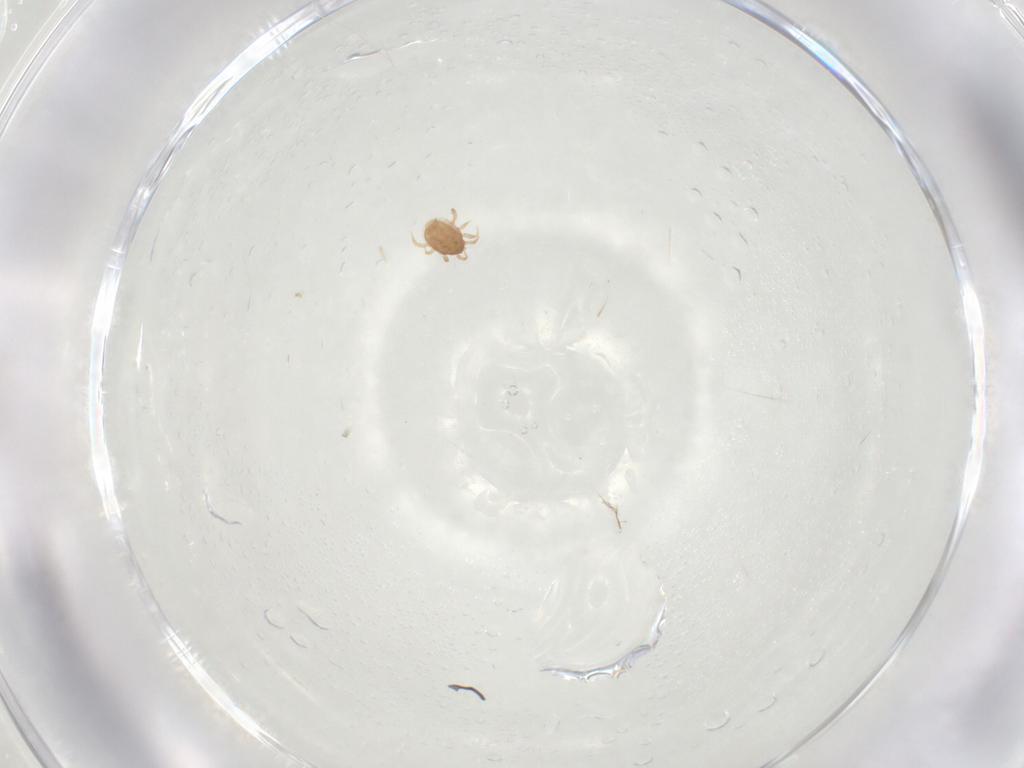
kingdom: Animalia
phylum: Arthropoda
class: Arachnida
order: Mesostigmata
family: Blattisociidae
